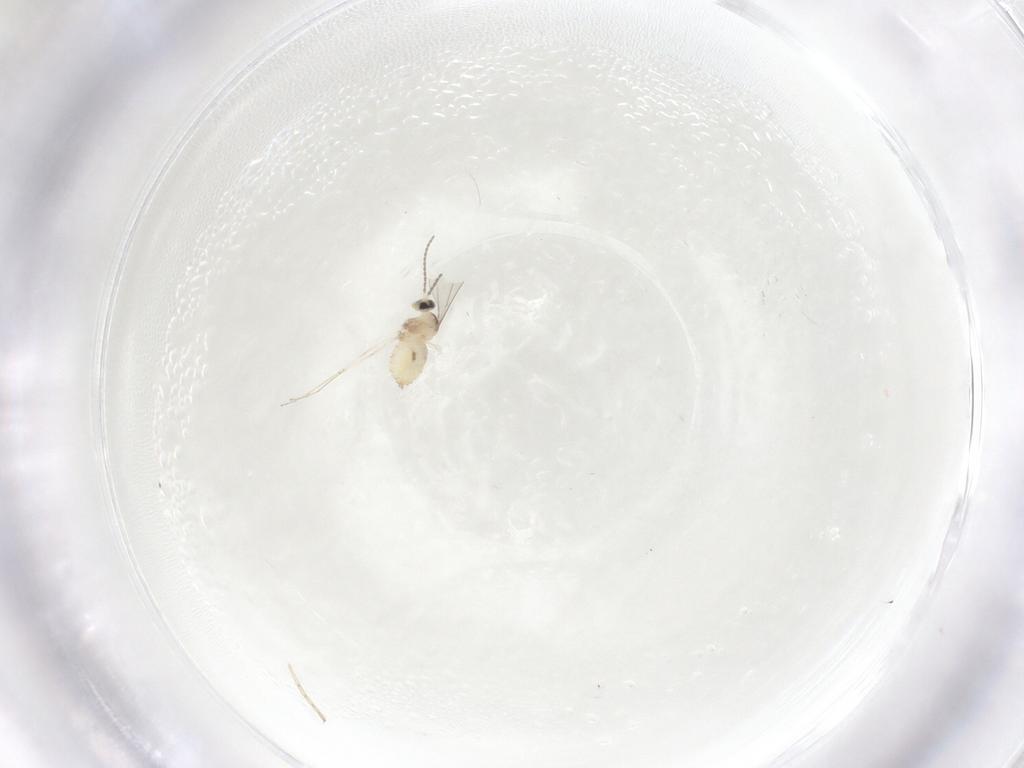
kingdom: Animalia
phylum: Arthropoda
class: Insecta
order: Diptera
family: Cecidomyiidae
